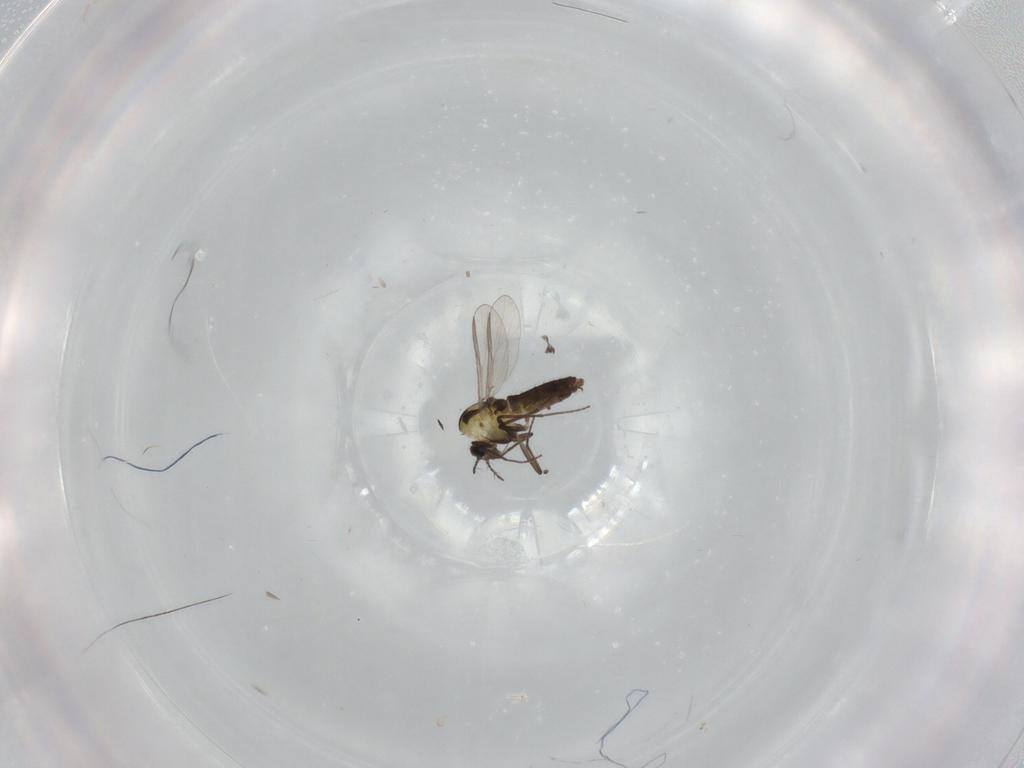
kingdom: Animalia
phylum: Arthropoda
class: Insecta
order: Diptera
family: Chironomidae
